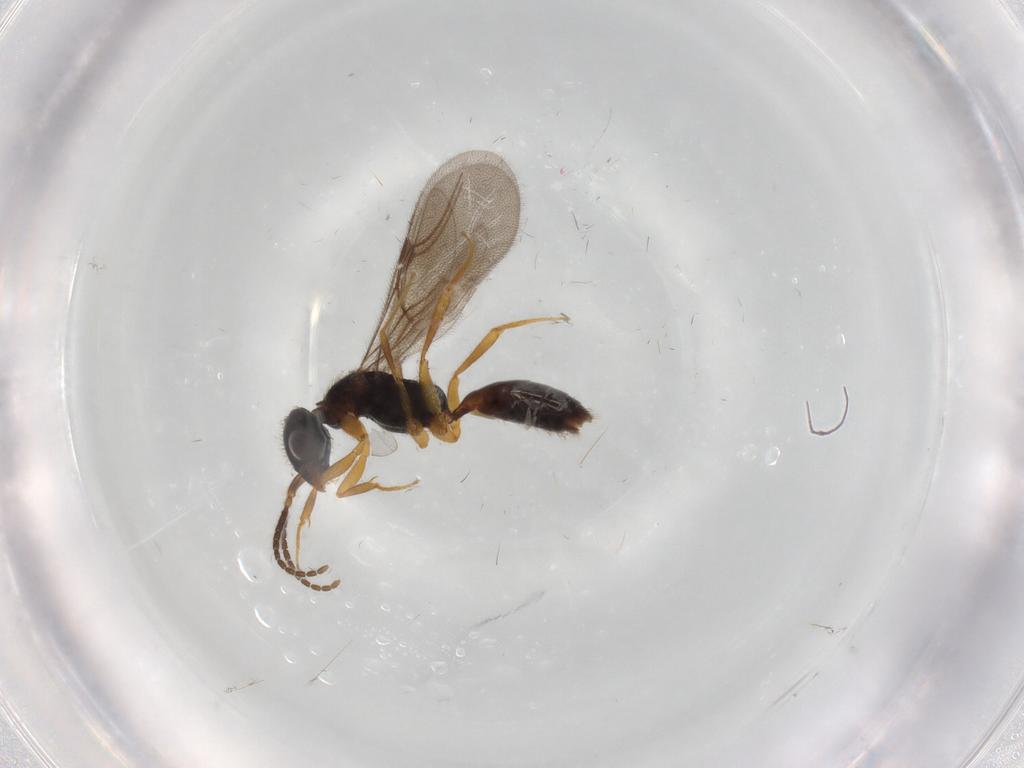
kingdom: Animalia
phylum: Arthropoda
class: Insecta
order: Hymenoptera
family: Bethylidae
